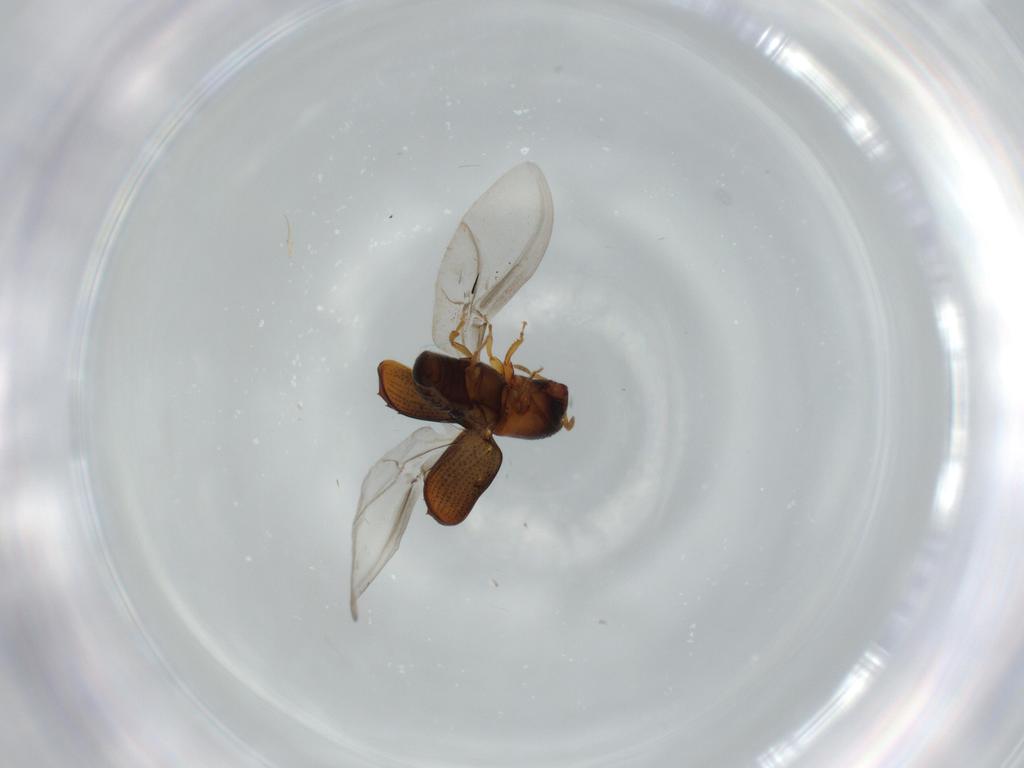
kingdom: Animalia
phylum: Arthropoda
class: Insecta
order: Coleoptera
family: Curculionidae
